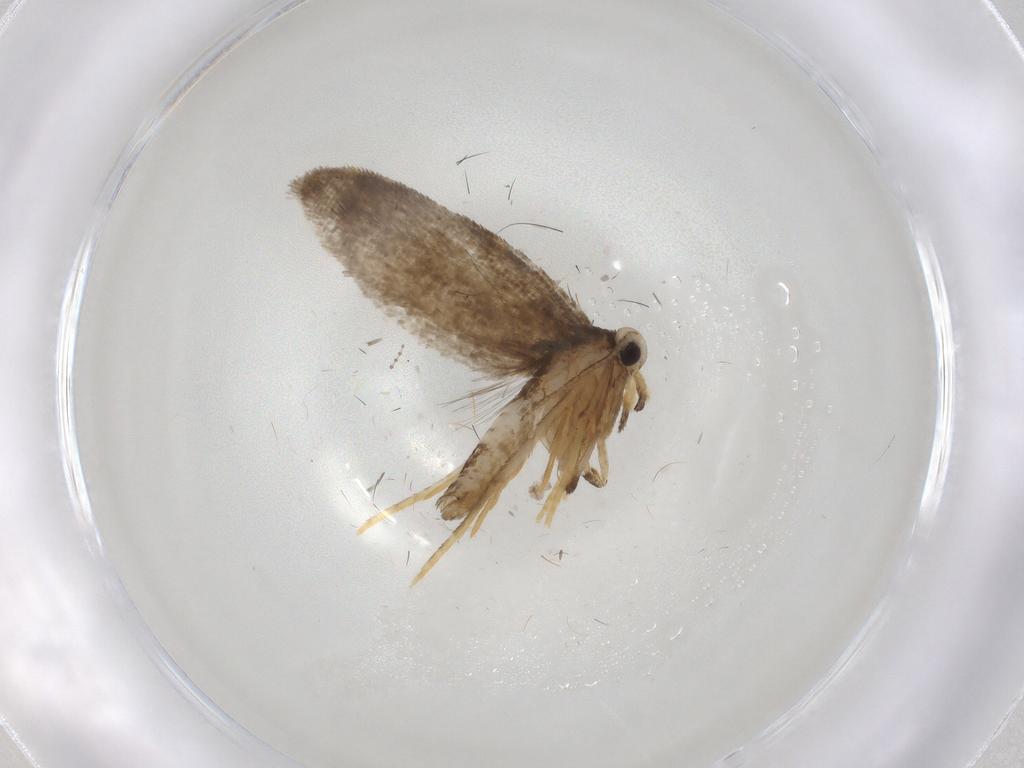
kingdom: Animalia
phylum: Arthropoda
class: Insecta
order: Lepidoptera
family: Psychidae
